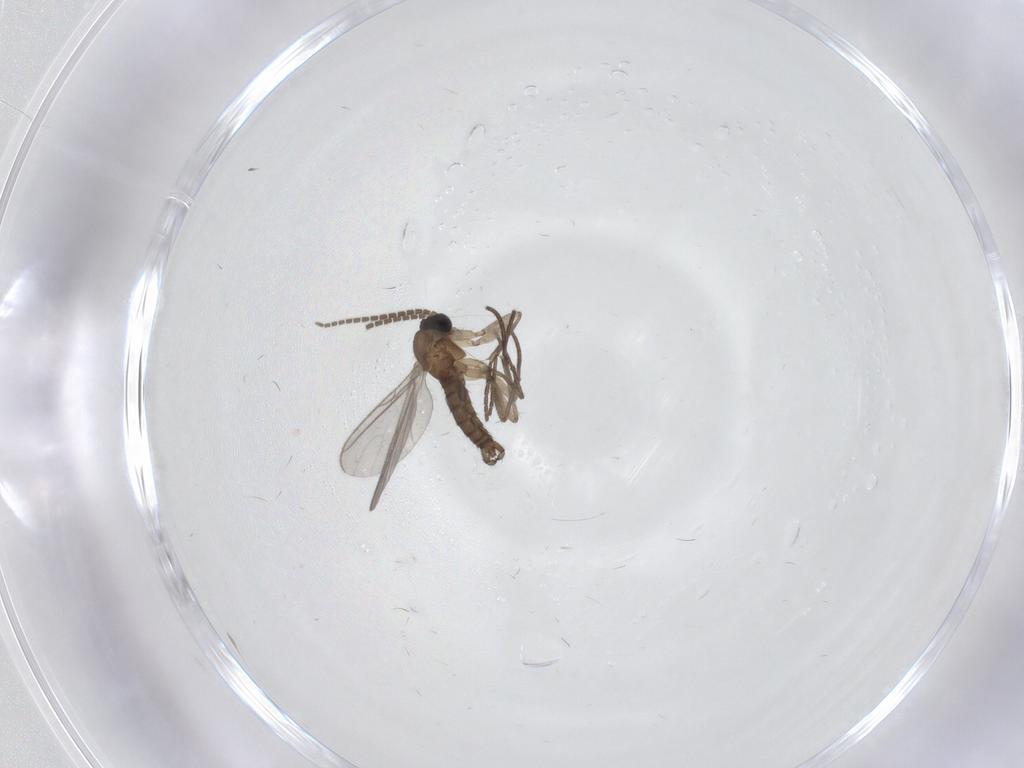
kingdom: Animalia
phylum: Arthropoda
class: Insecta
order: Diptera
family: Sciaridae
